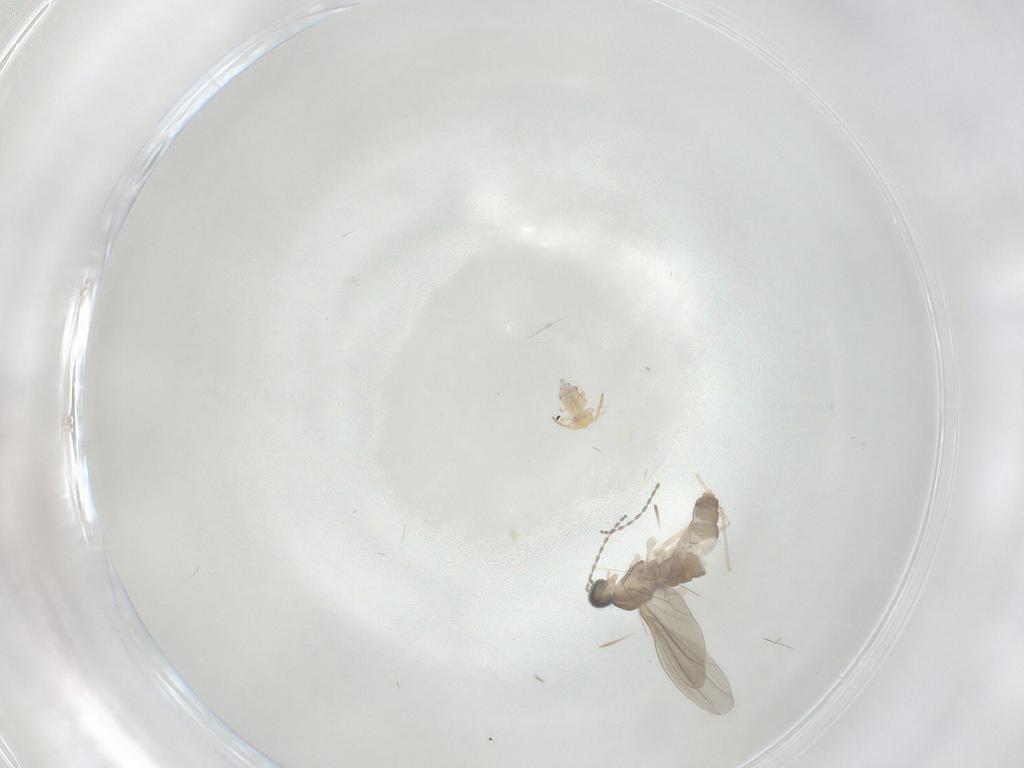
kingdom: Animalia
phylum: Arthropoda
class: Insecta
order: Diptera
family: Cecidomyiidae
